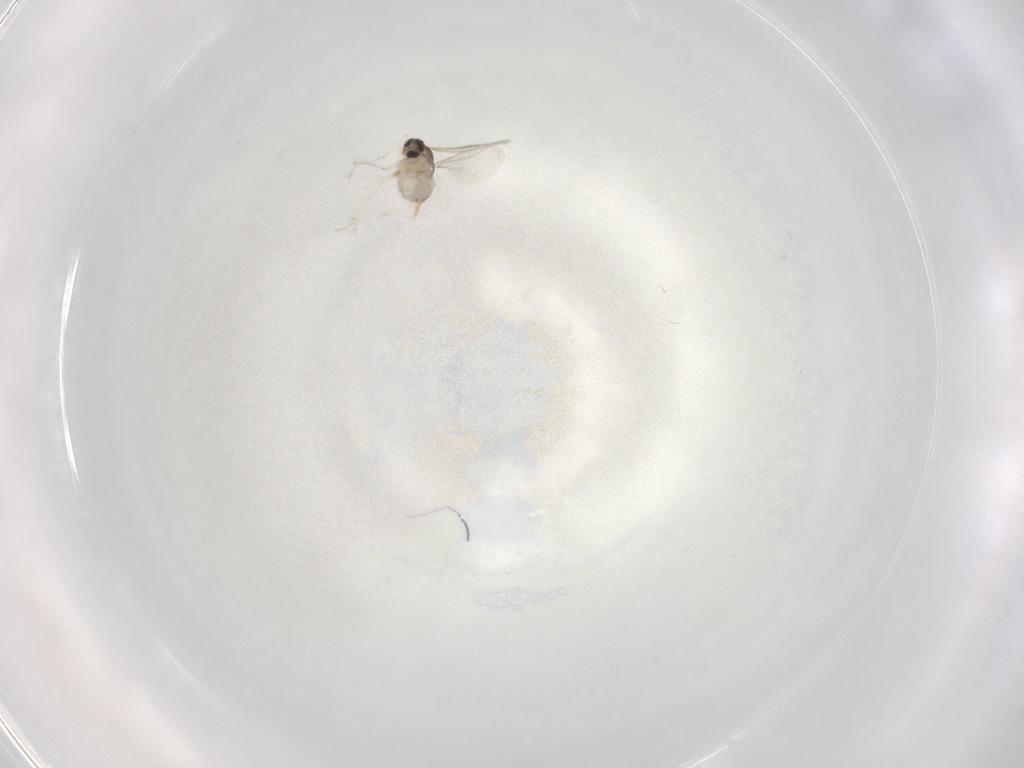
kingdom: Animalia
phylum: Arthropoda
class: Insecta
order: Diptera
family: Cecidomyiidae
